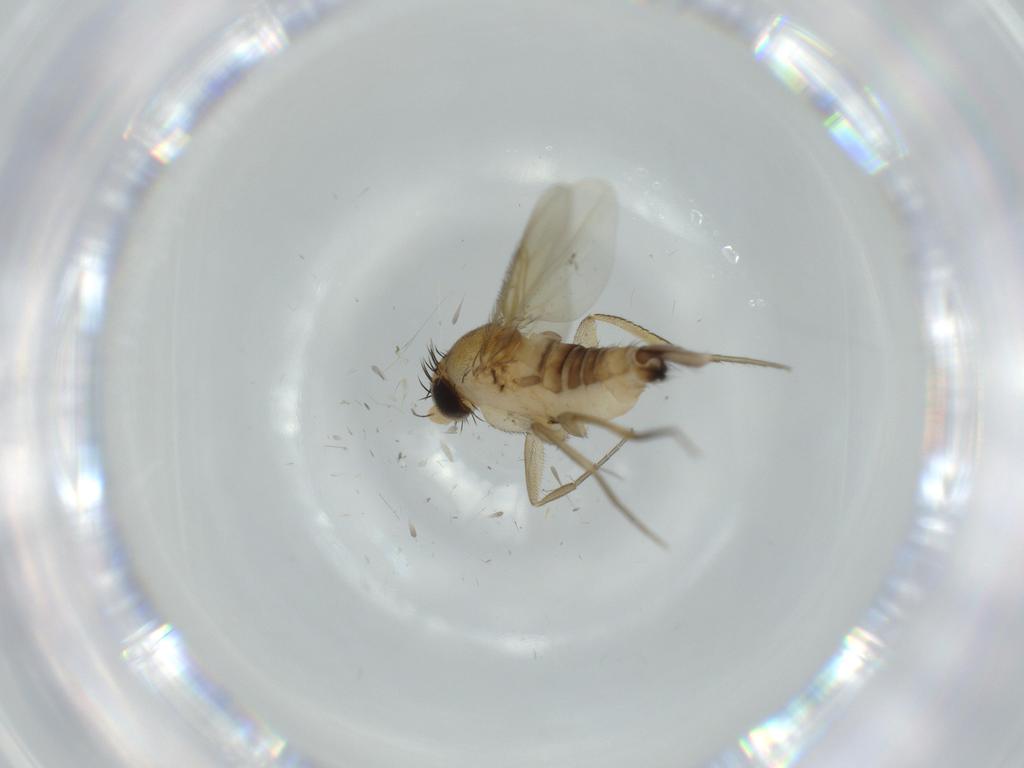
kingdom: Animalia
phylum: Arthropoda
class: Insecta
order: Diptera
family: Phoridae
